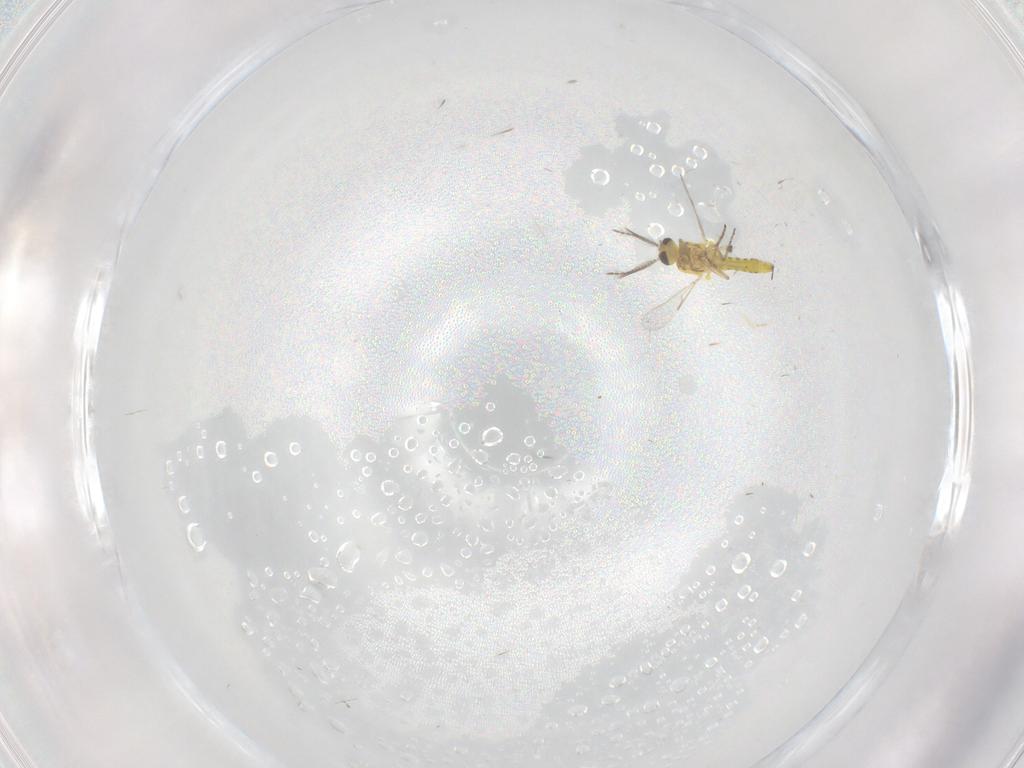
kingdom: Animalia
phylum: Arthropoda
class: Insecta
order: Diptera
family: Cecidomyiidae
